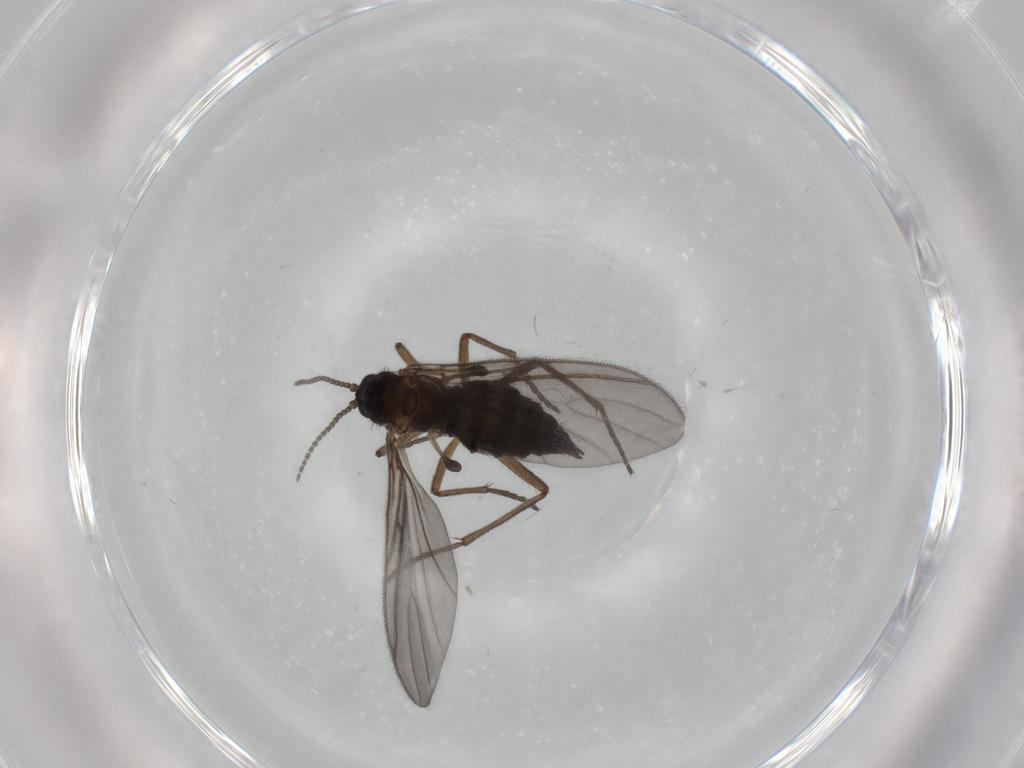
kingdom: Animalia
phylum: Arthropoda
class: Insecta
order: Diptera
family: Sciaridae
